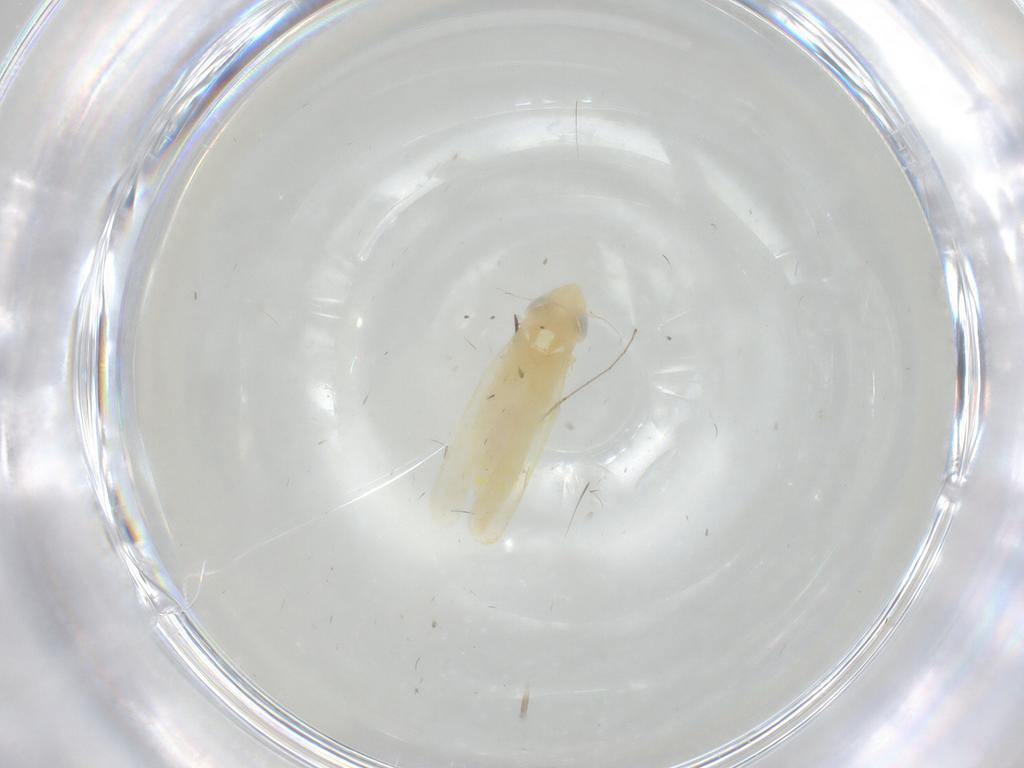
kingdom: Animalia
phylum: Arthropoda
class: Insecta
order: Hemiptera
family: Cicadellidae
